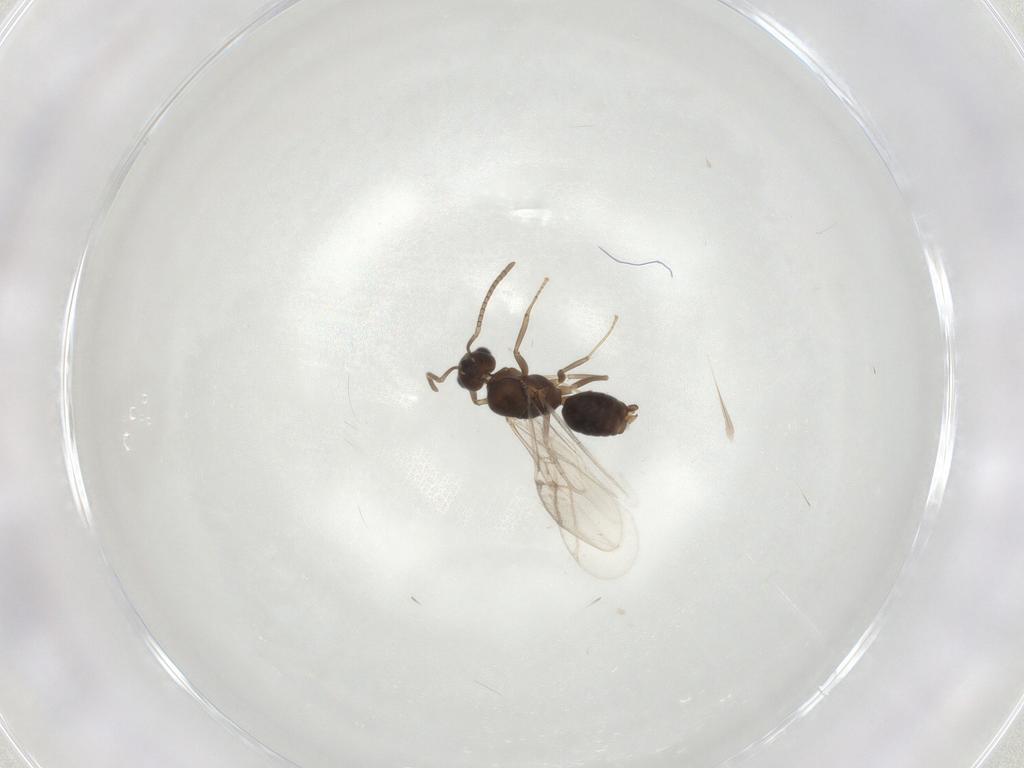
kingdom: Animalia
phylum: Arthropoda
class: Insecta
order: Hymenoptera
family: Formicidae
